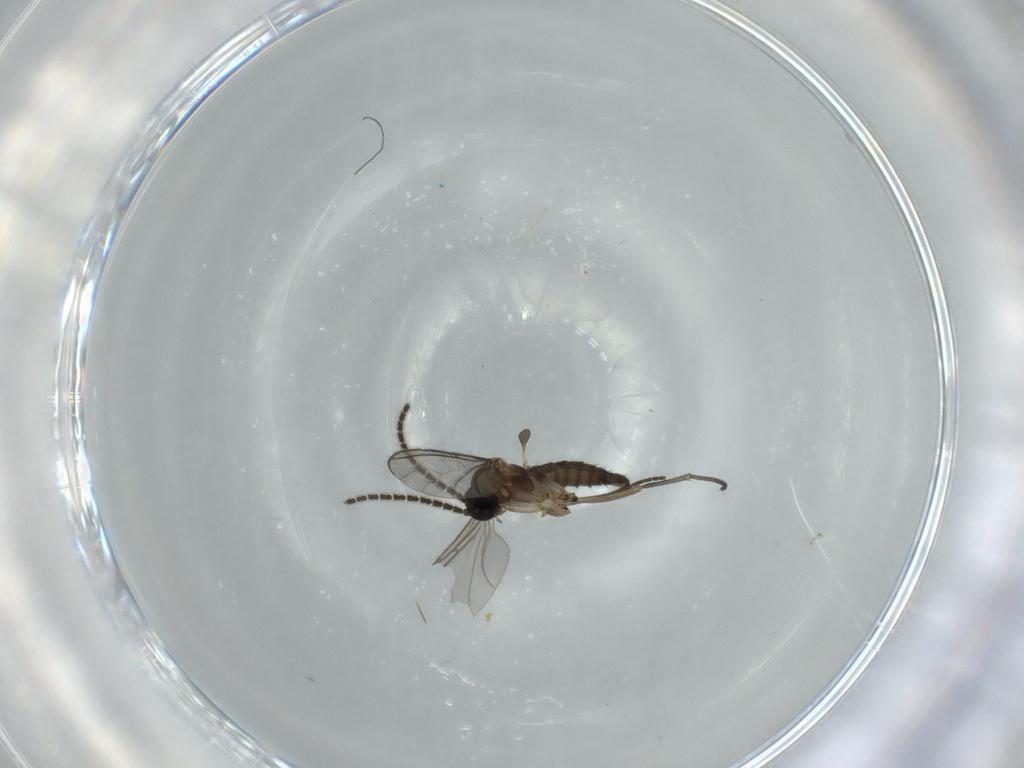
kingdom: Animalia
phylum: Arthropoda
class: Insecta
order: Diptera
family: Sciaridae
